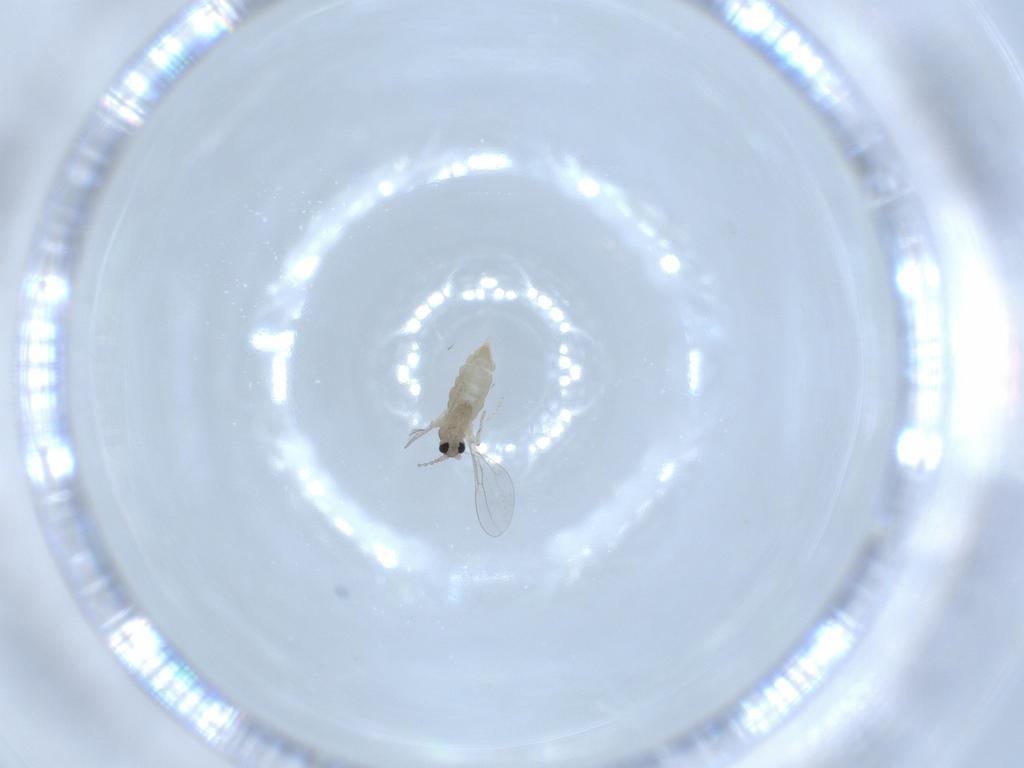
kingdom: Animalia
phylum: Arthropoda
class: Insecta
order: Diptera
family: Cecidomyiidae
